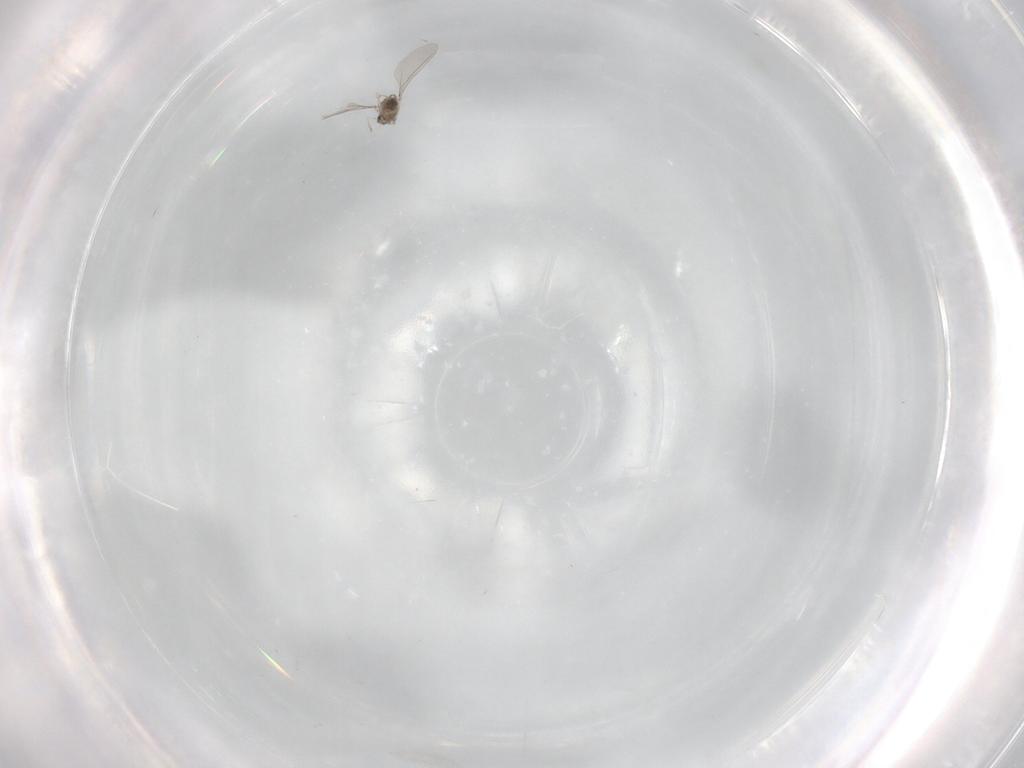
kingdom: Animalia
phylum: Arthropoda
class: Insecta
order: Diptera
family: Cecidomyiidae
